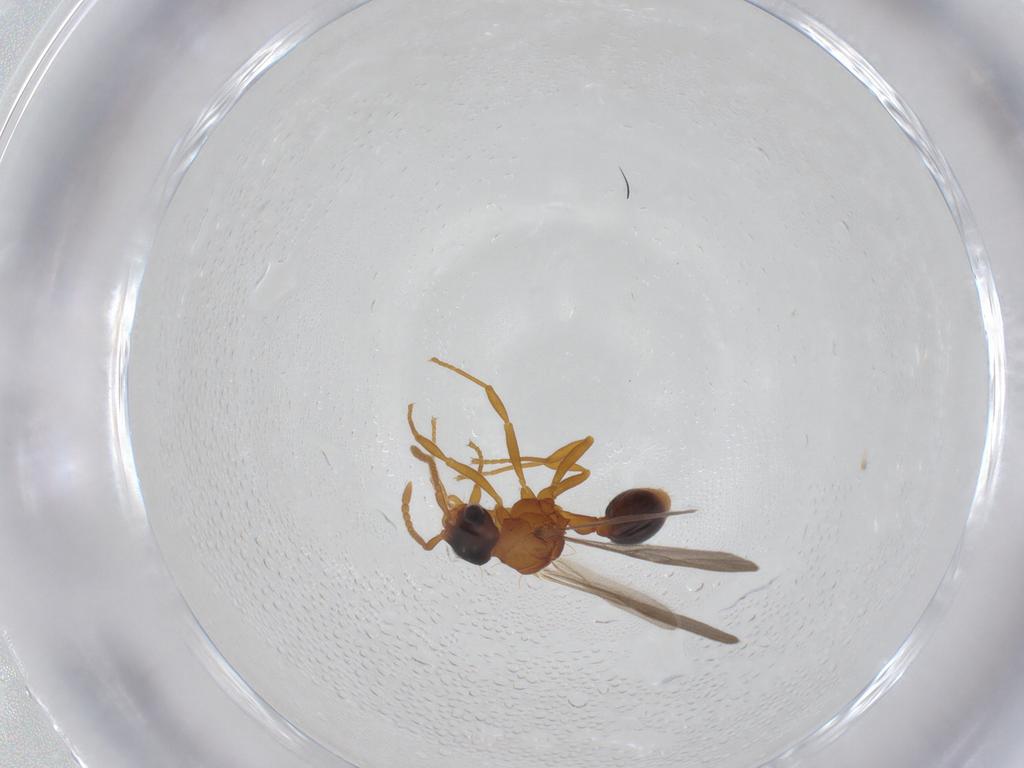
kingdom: Animalia
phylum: Arthropoda
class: Insecta
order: Hymenoptera
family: Formicidae
